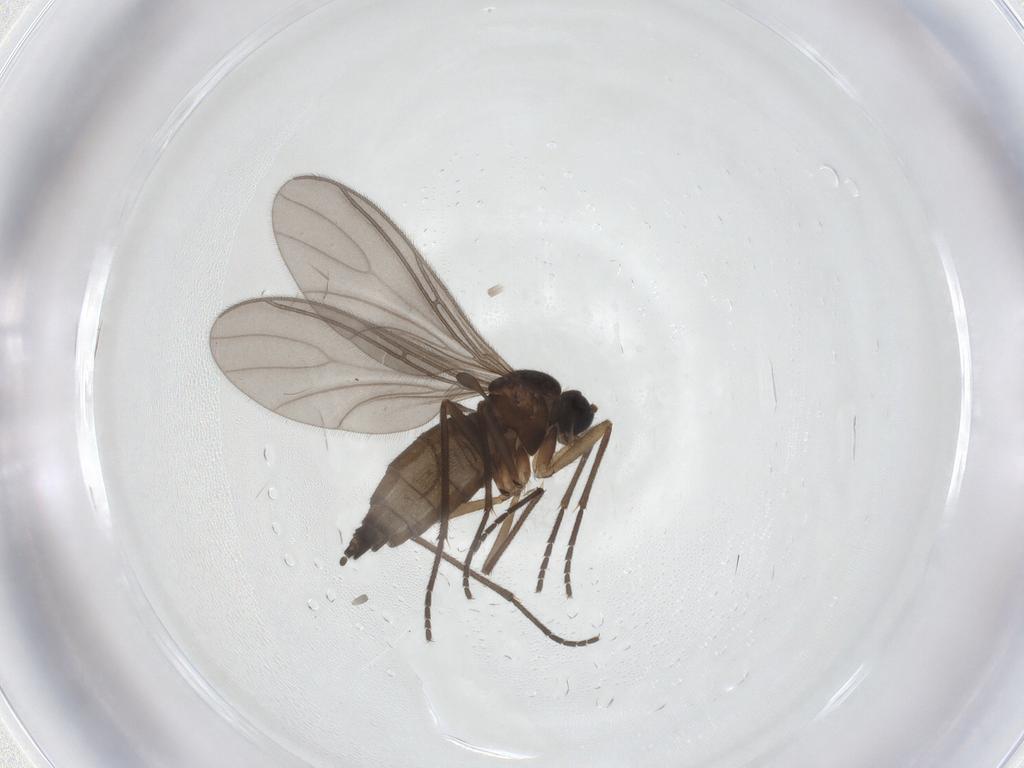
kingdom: Animalia
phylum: Arthropoda
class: Insecta
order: Diptera
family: Sciaridae
